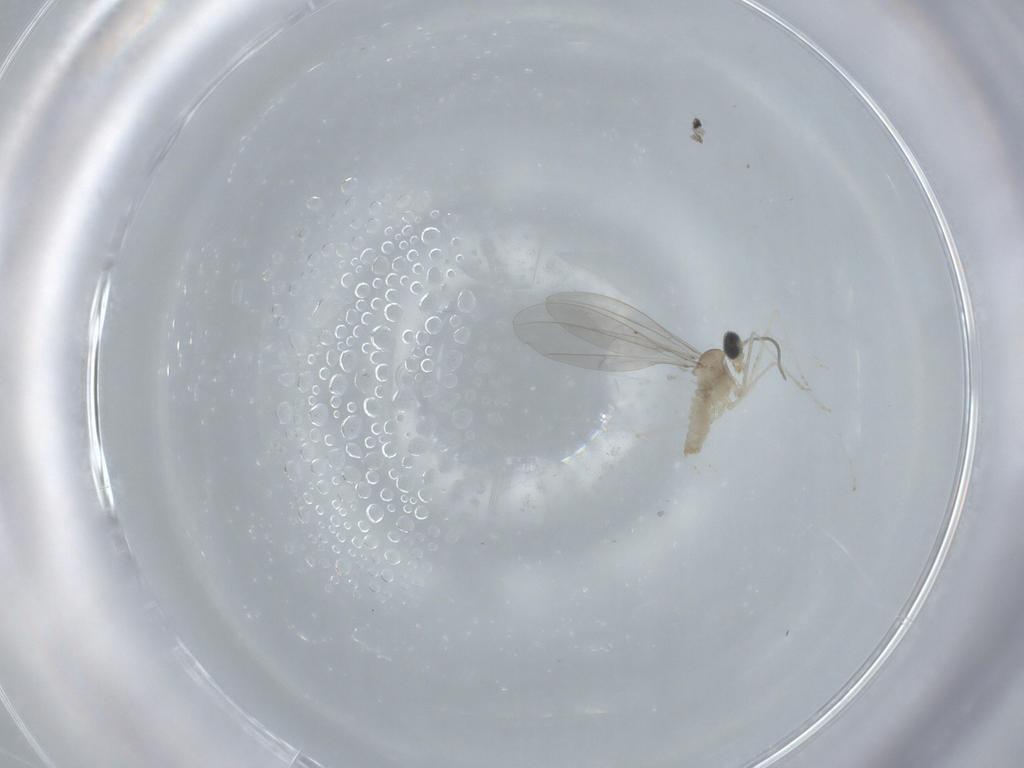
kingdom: Animalia
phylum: Arthropoda
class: Insecta
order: Diptera
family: Cecidomyiidae
